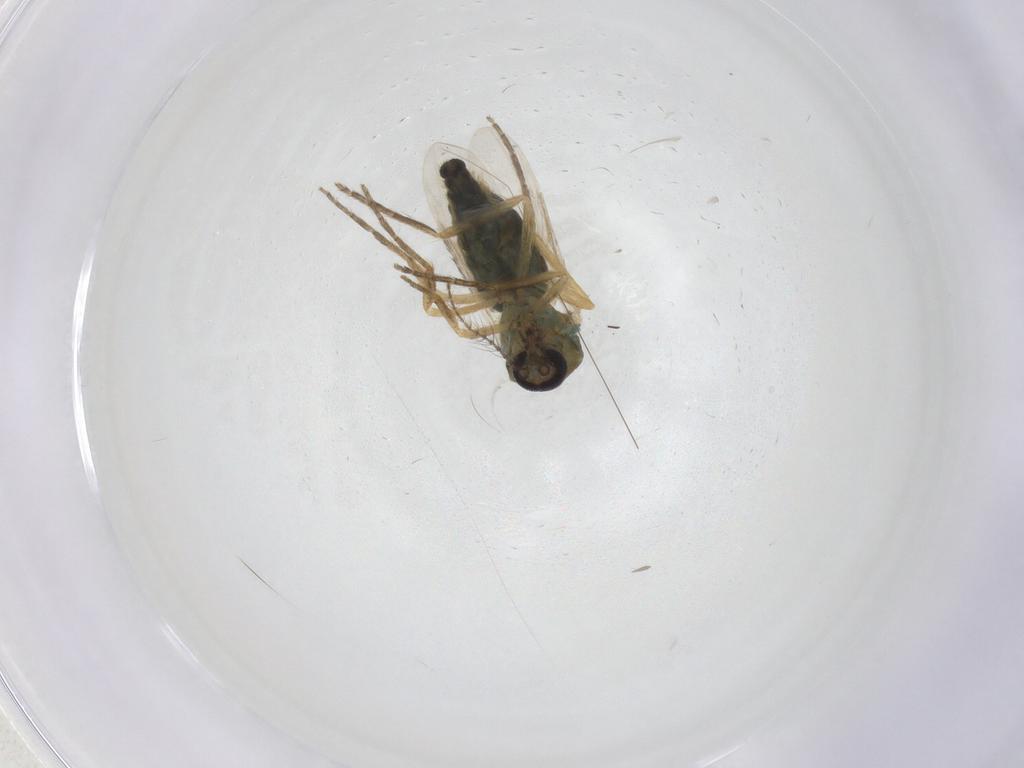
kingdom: Animalia
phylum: Arthropoda
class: Insecta
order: Diptera
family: Ceratopogonidae
